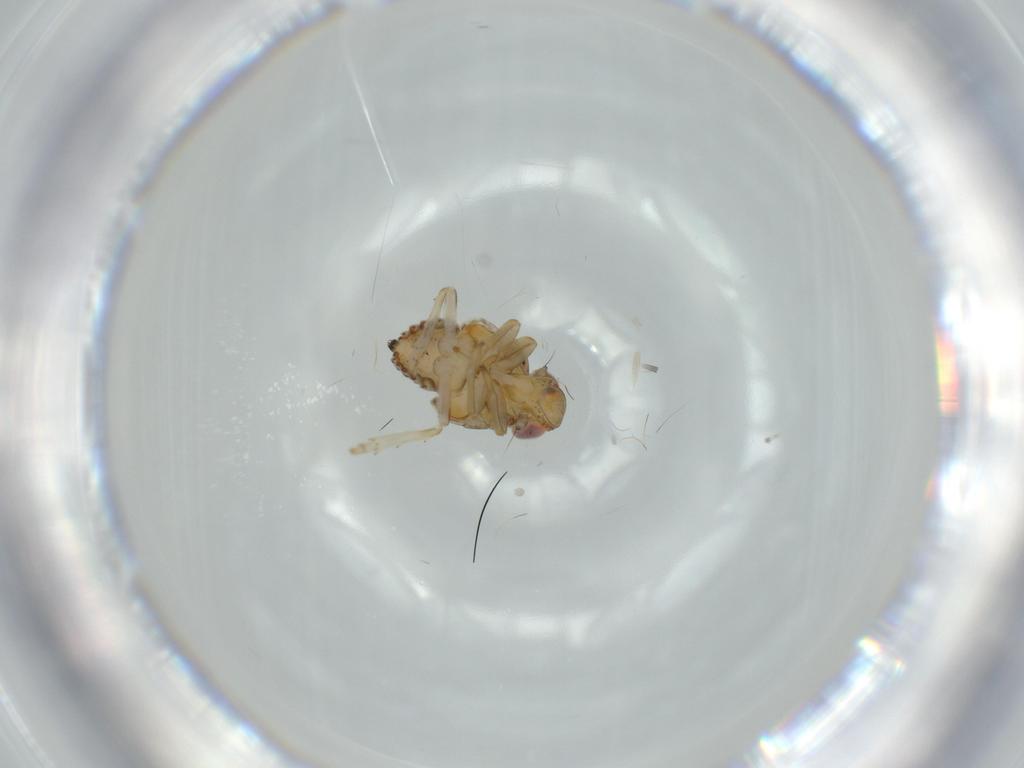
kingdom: Animalia
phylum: Arthropoda
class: Insecta
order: Hemiptera
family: Issidae
